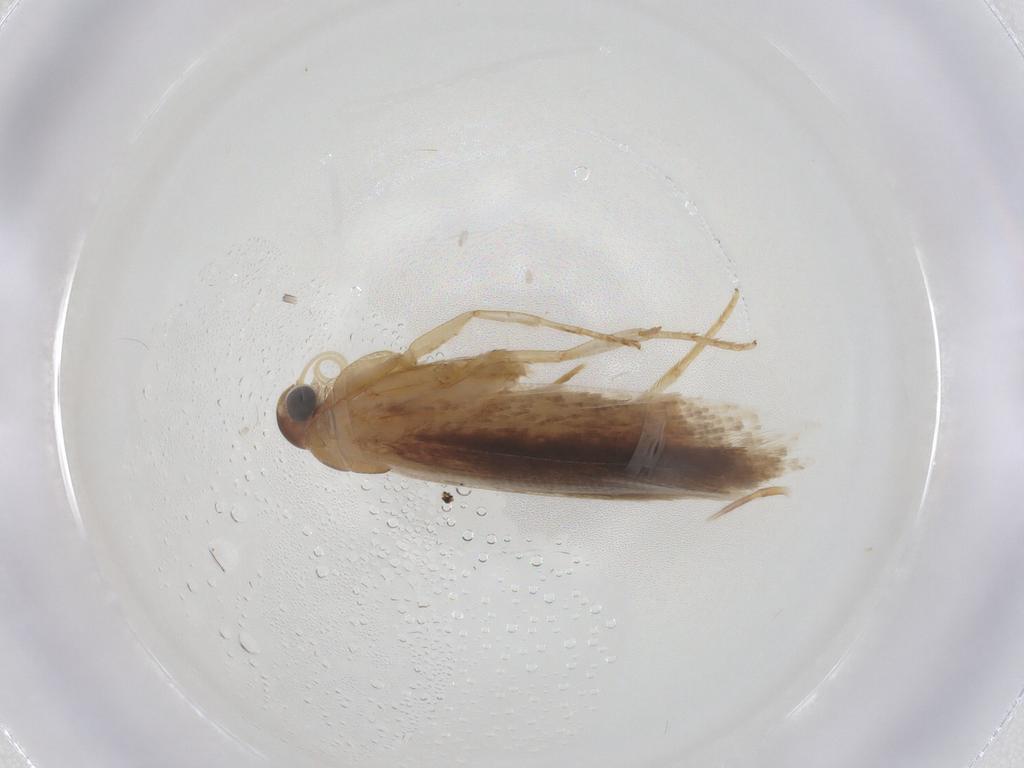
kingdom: Animalia
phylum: Arthropoda
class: Insecta
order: Lepidoptera
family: Gelechiidae
